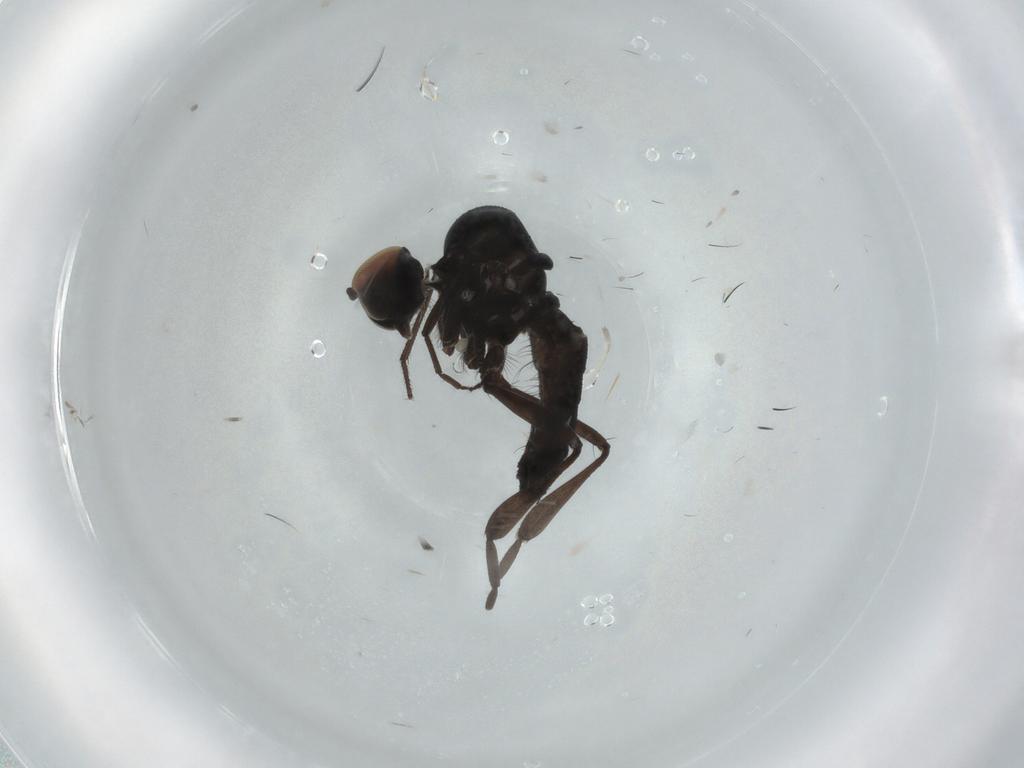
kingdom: Animalia
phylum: Arthropoda
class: Insecta
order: Diptera
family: Hybotidae
